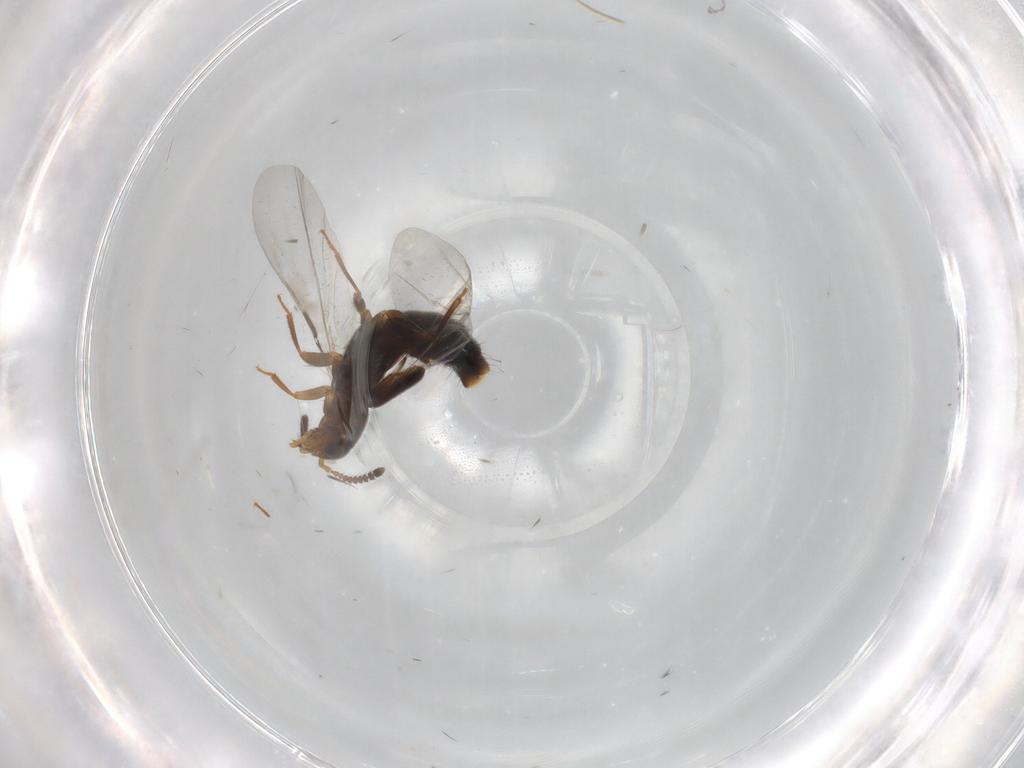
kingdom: Animalia
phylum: Arthropoda
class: Insecta
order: Coleoptera
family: Staphylinidae
